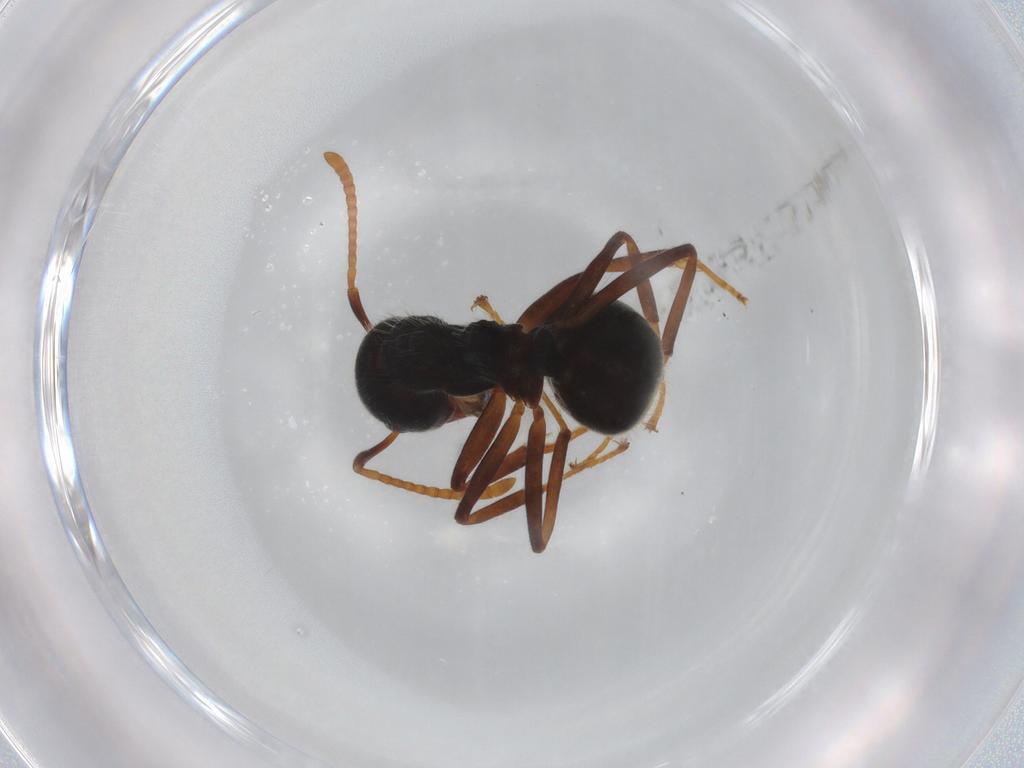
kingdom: Animalia
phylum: Arthropoda
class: Insecta
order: Hymenoptera
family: Formicidae
